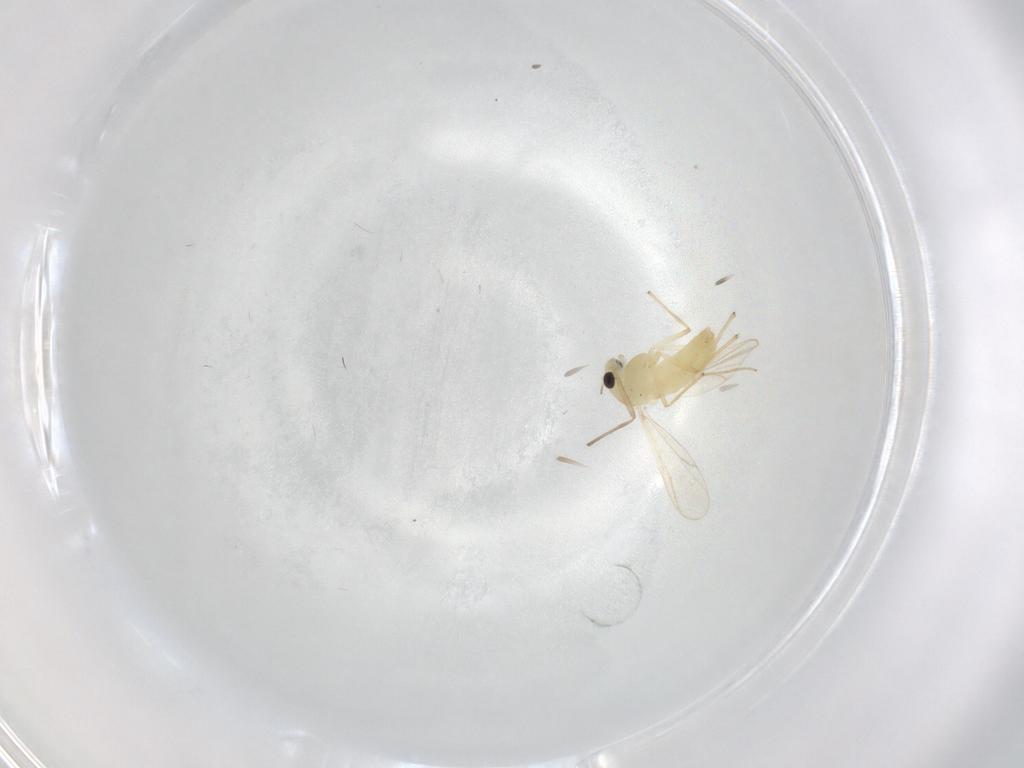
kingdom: Animalia
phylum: Arthropoda
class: Insecta
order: Diptera
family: Chironomidae
